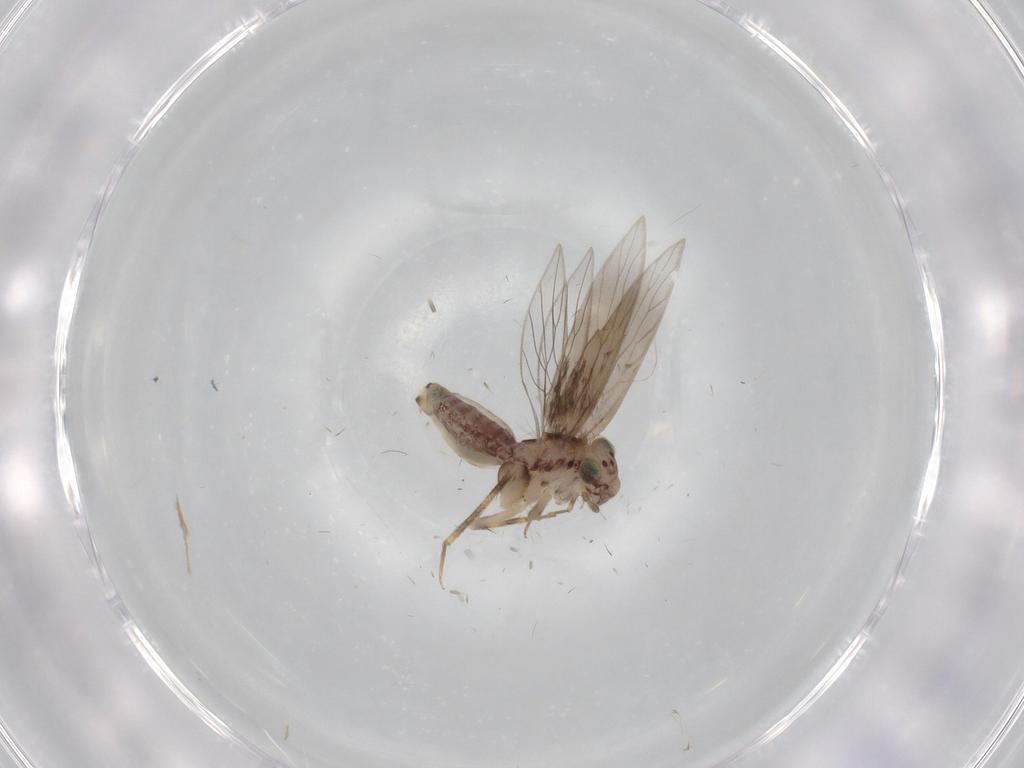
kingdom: Animalia
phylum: Arthropoda
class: Insecta
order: Psocodea
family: Lepidopsocidae
